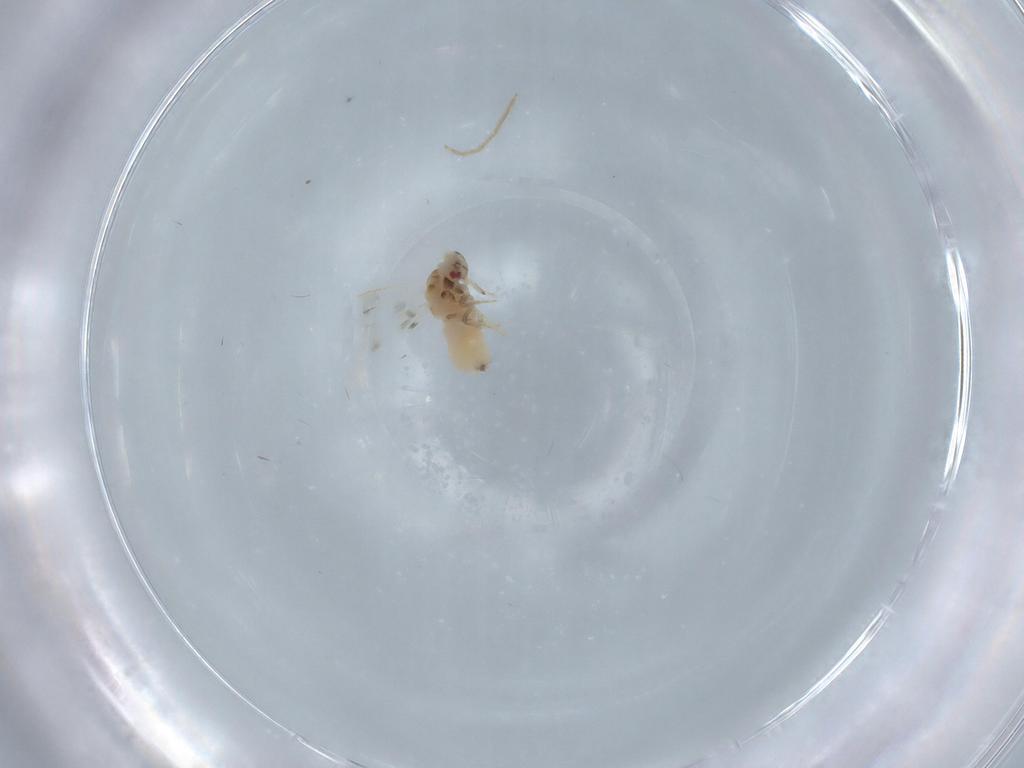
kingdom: Animalia
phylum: Arthropoda
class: Insecta
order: Hemiptera
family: Aleyrodidae
